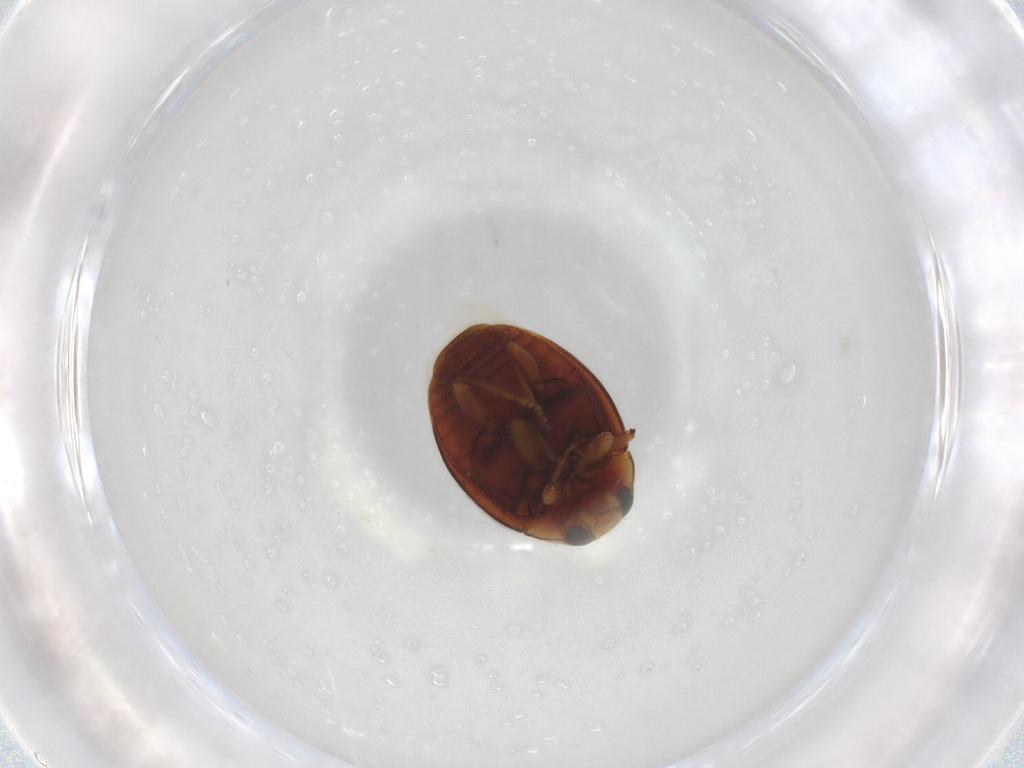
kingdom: Animalia
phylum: Arthropoda
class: Insecta
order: Coleoptera
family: Coccinellidae
